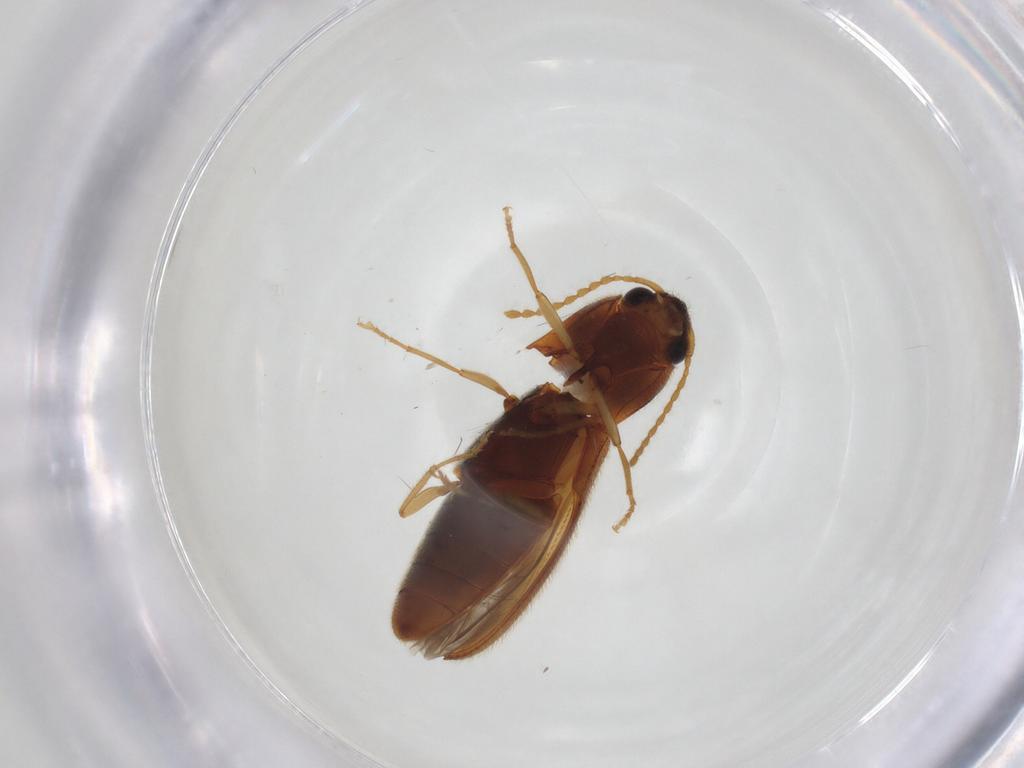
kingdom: Animalia
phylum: Arthropoda
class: Insecta
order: Coleoptera
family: Elateridae
